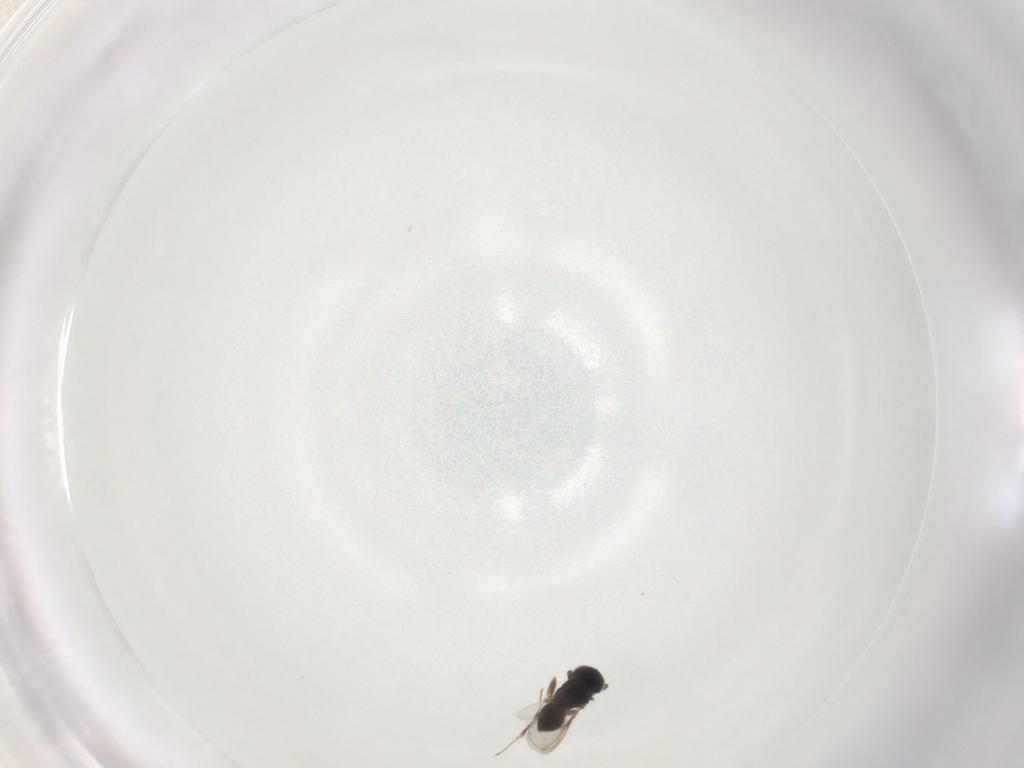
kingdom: Animalia
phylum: Arthropoda
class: Insecta
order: Hymenoptera
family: Scelionidae
